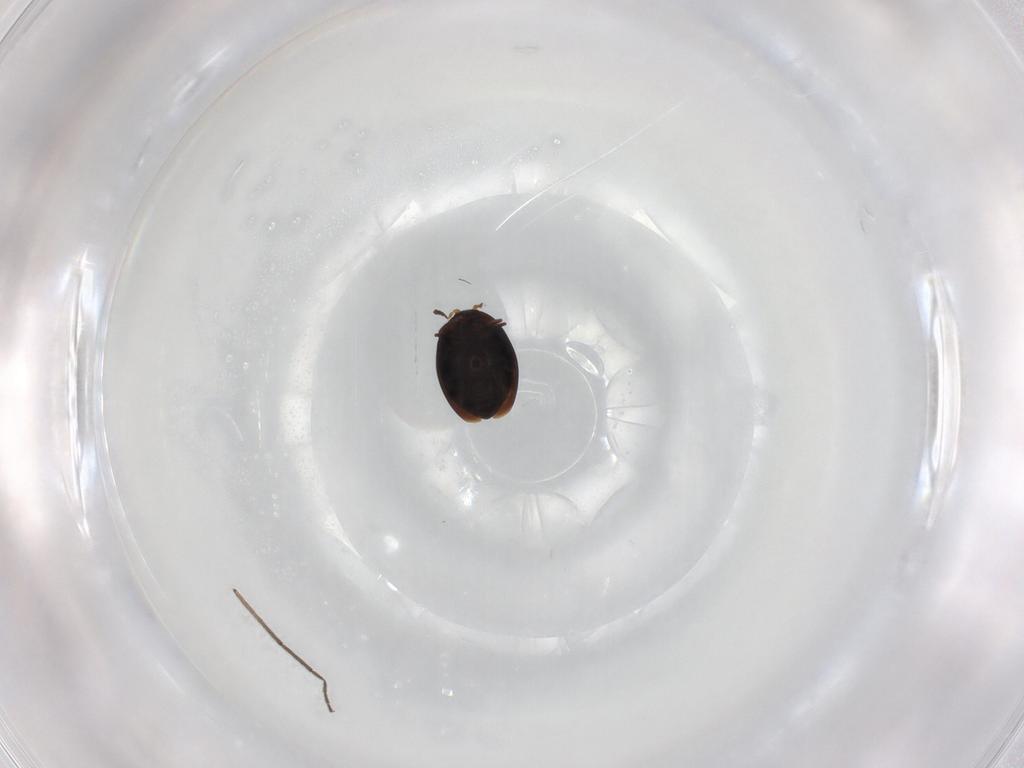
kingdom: Animalia
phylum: Arthropoda
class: Insecta
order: Coleoptera
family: Corylophidae
